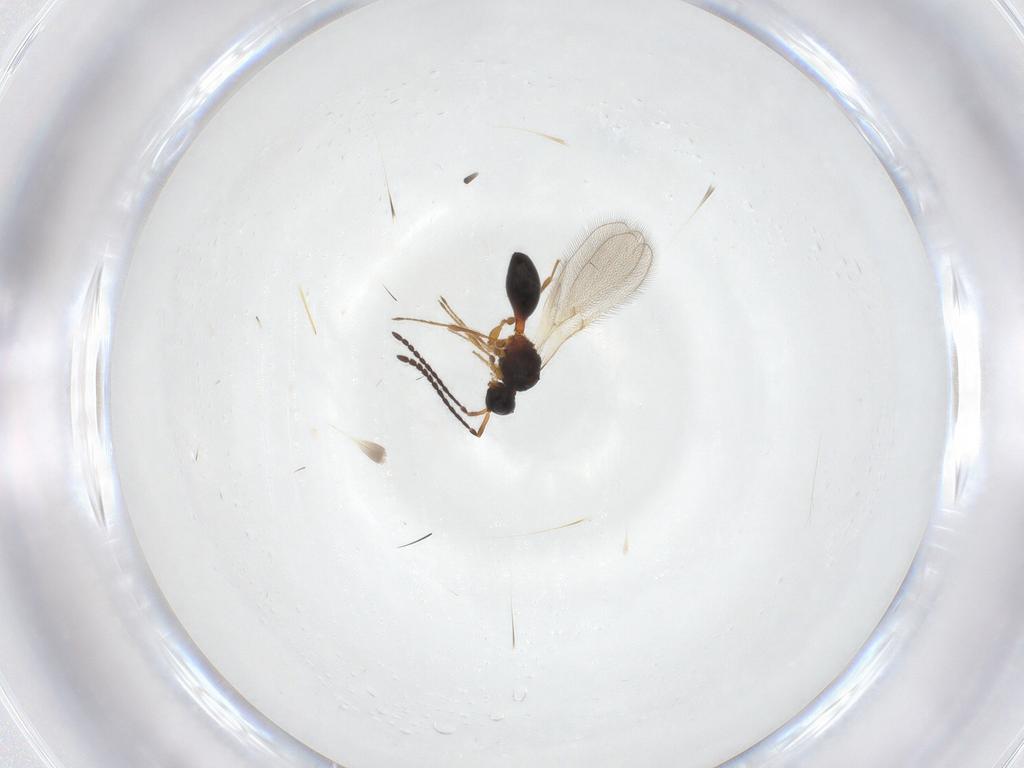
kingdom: Animalia
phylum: Arthropoda
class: Insecta
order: Hymenoptera
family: Diapriidae
